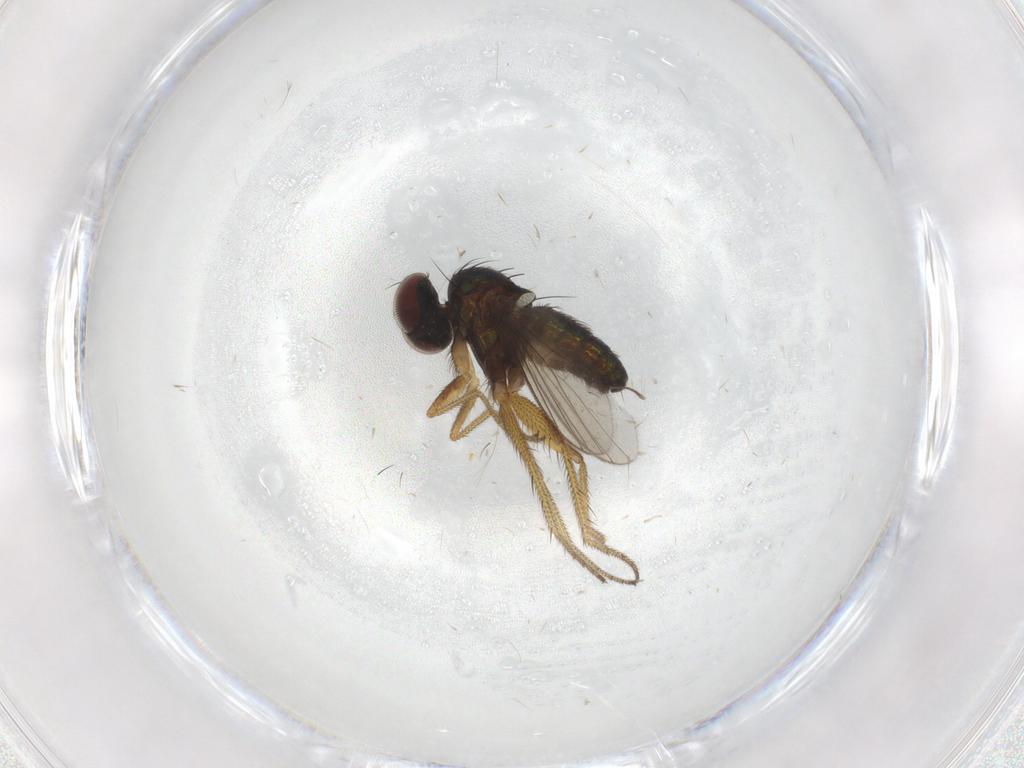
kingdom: Animalia
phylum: Arthropoda
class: Insecta
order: Diptera
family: Dolichopodidae
